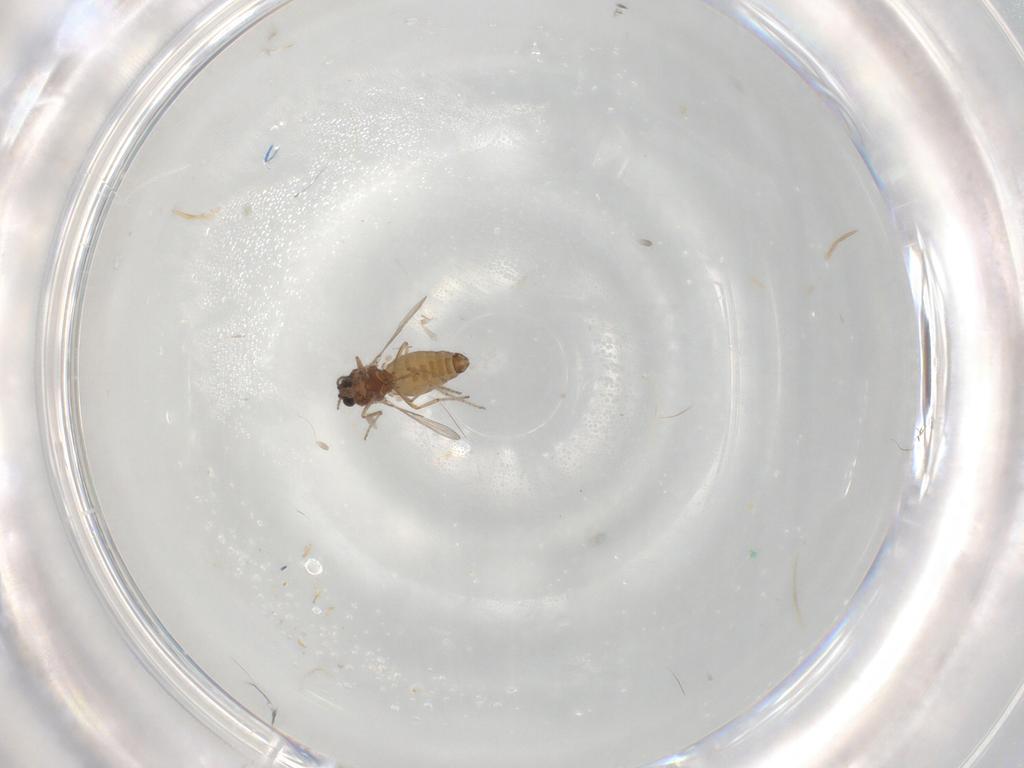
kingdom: Animalia
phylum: Arthropoda
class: Insecta
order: Diptera
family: Ceratopogonidae
